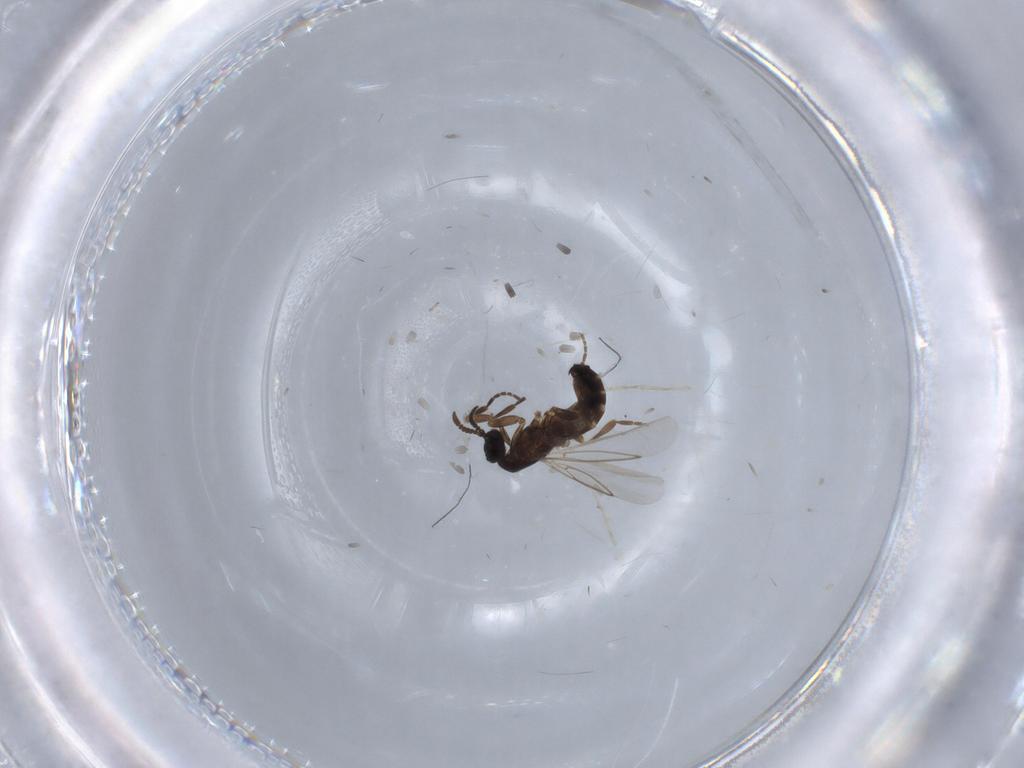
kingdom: Animalia
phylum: Arthropoda
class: Insecta
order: Diptera
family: Scatopsidae
